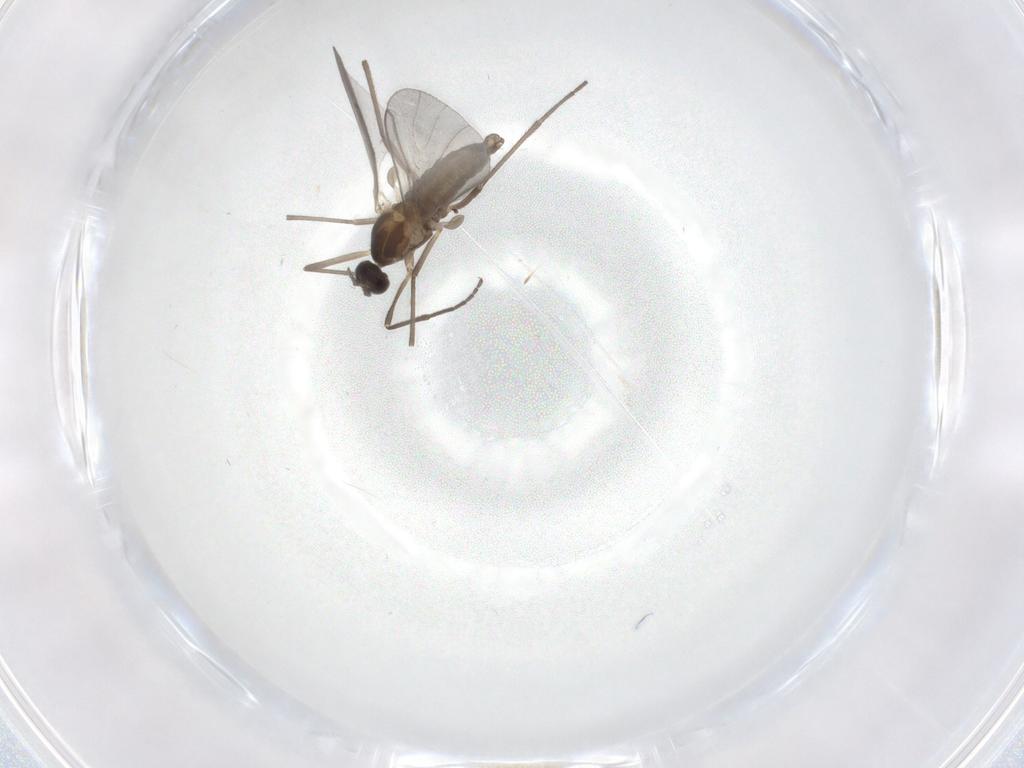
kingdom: Animalia
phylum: Arthropoda
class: Insecta
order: Diptera
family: Cecidomyiidae
